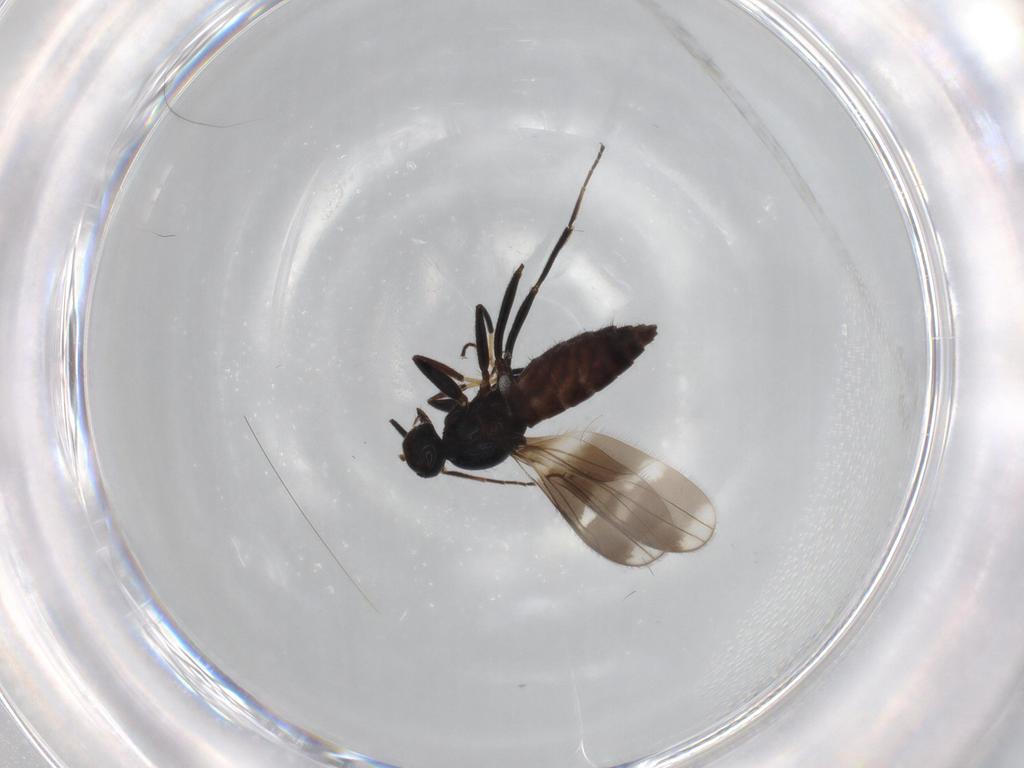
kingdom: Animalia
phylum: Arthropoda
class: Insecta
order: Diptera
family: Hybotidae
